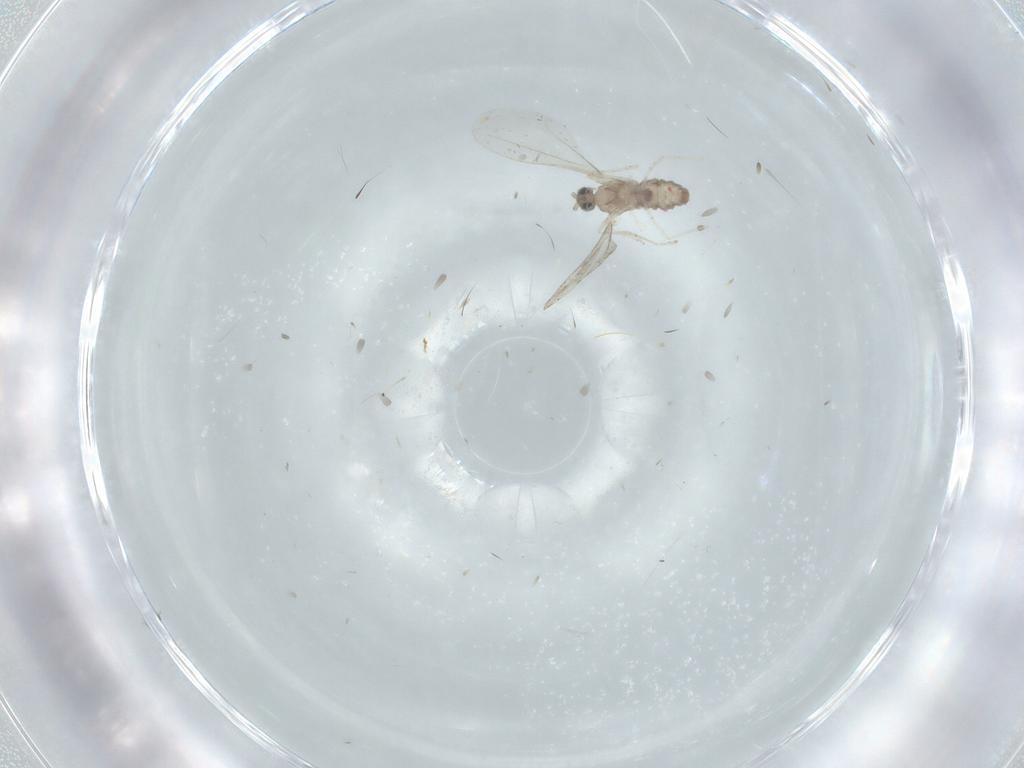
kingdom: Animalia
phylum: Arthropoda
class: Insecta
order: Diptera
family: Cecidomyiidae
